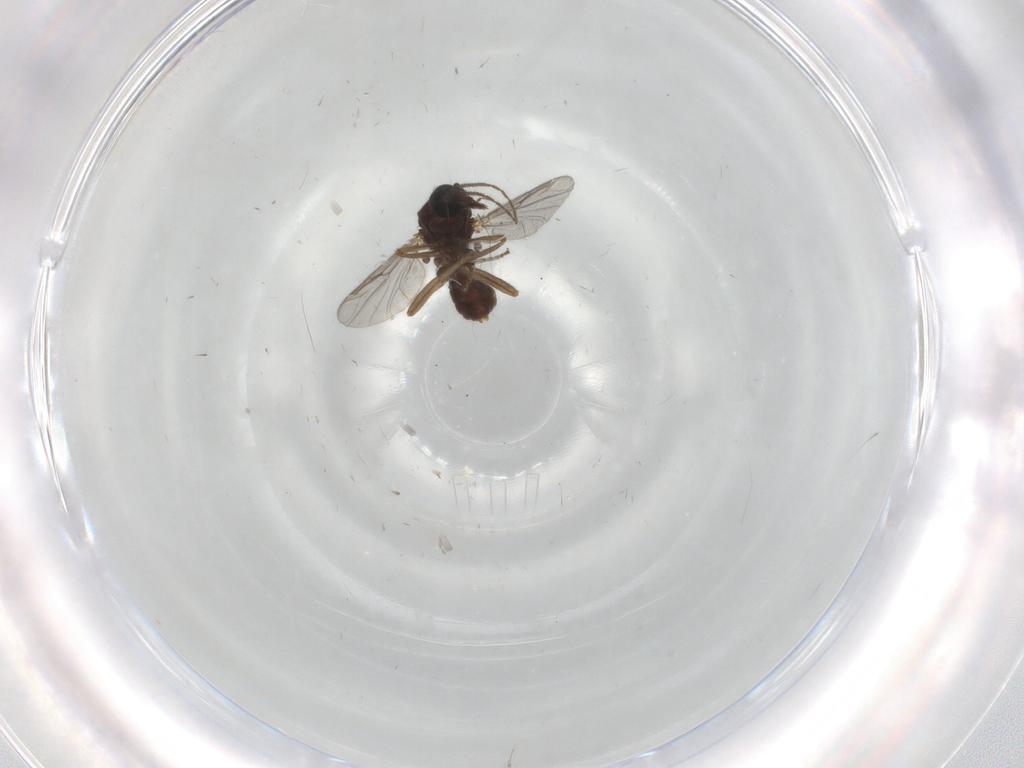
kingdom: Animalia
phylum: Arthropoda
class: Insecta
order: Diptera
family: Ceratopogonidae
